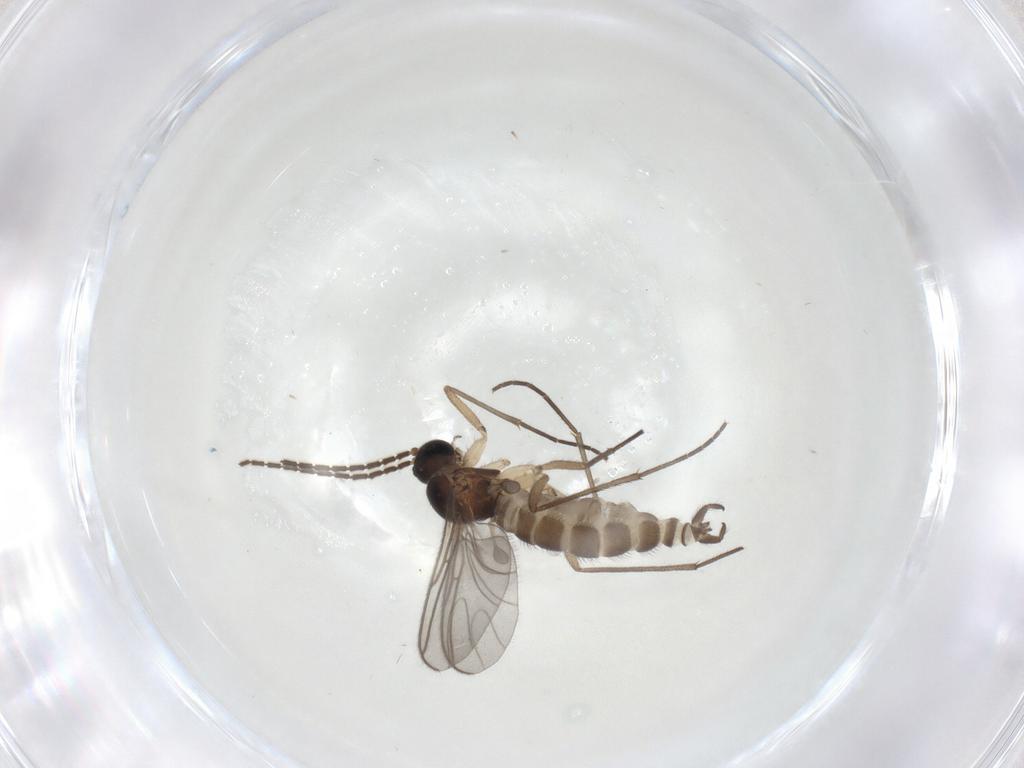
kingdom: Animalia
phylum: Arthropoda
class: Insecta
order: Diptera
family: Sciaridae
